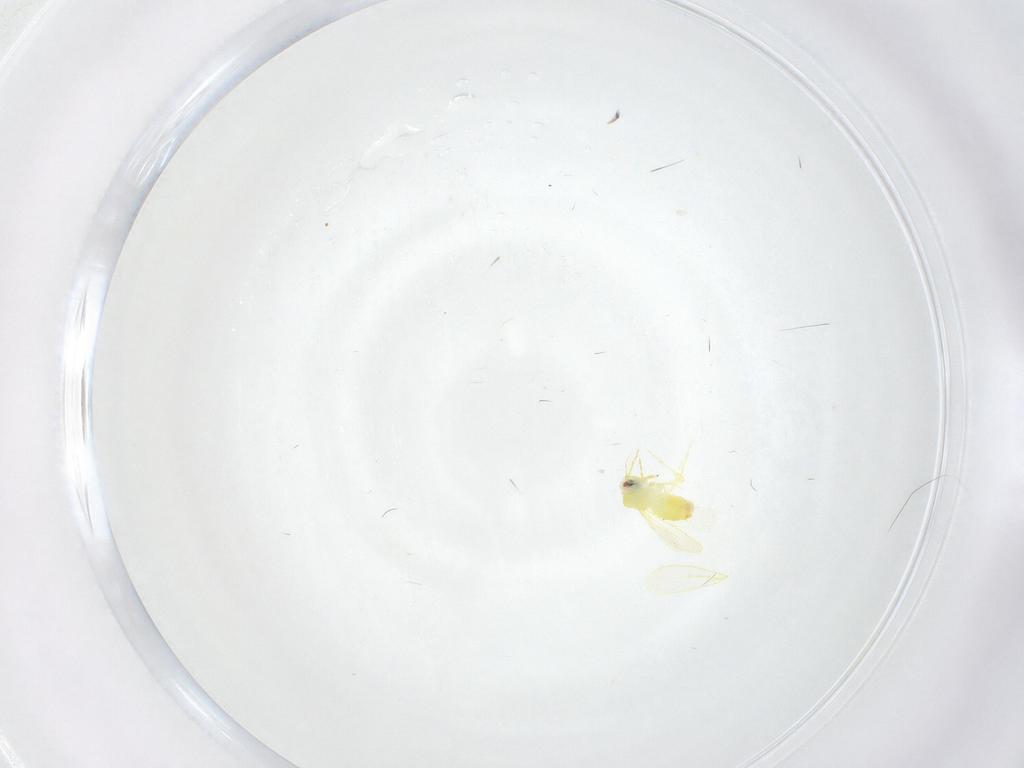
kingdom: Animalia
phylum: Arthropoda
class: Insecta
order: Hemiptera
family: Aleyrodidae
